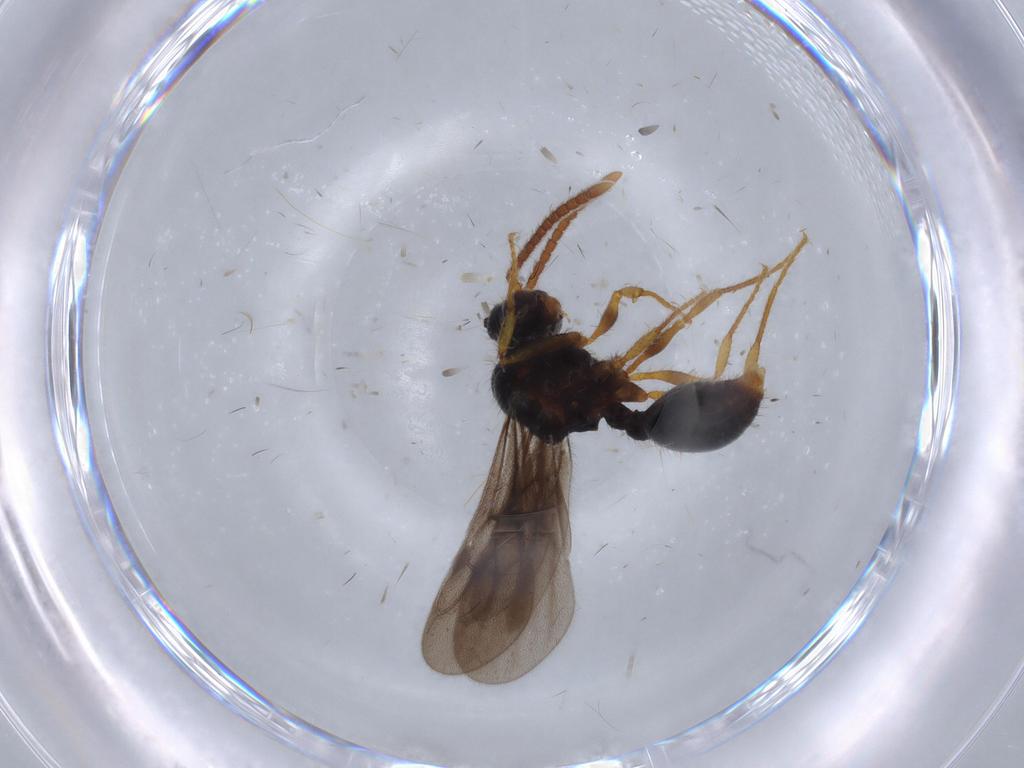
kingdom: Animalia
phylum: Arthropoda
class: Insecta
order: Hymenoptera
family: Formicidae
